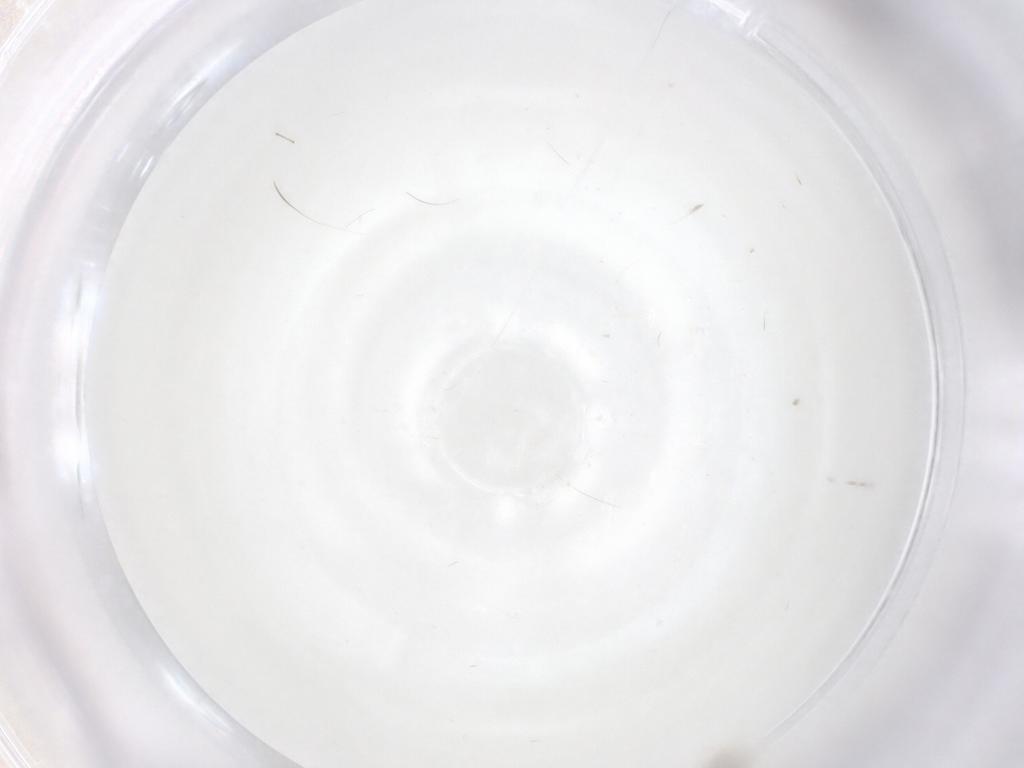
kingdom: Animalia
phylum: Arthropoda
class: Insecta
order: Diptera
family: Cecidomyiidae
